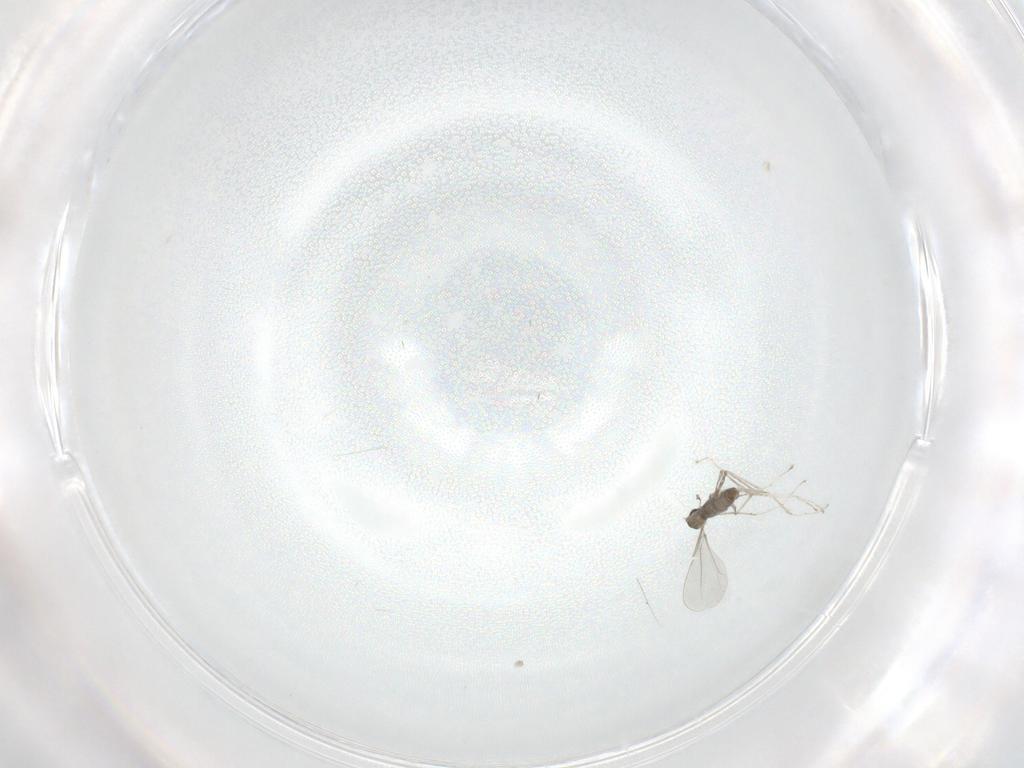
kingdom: Animalia
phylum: Arthropoda
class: Insecta
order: Diptera
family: Cecidomyiidae
